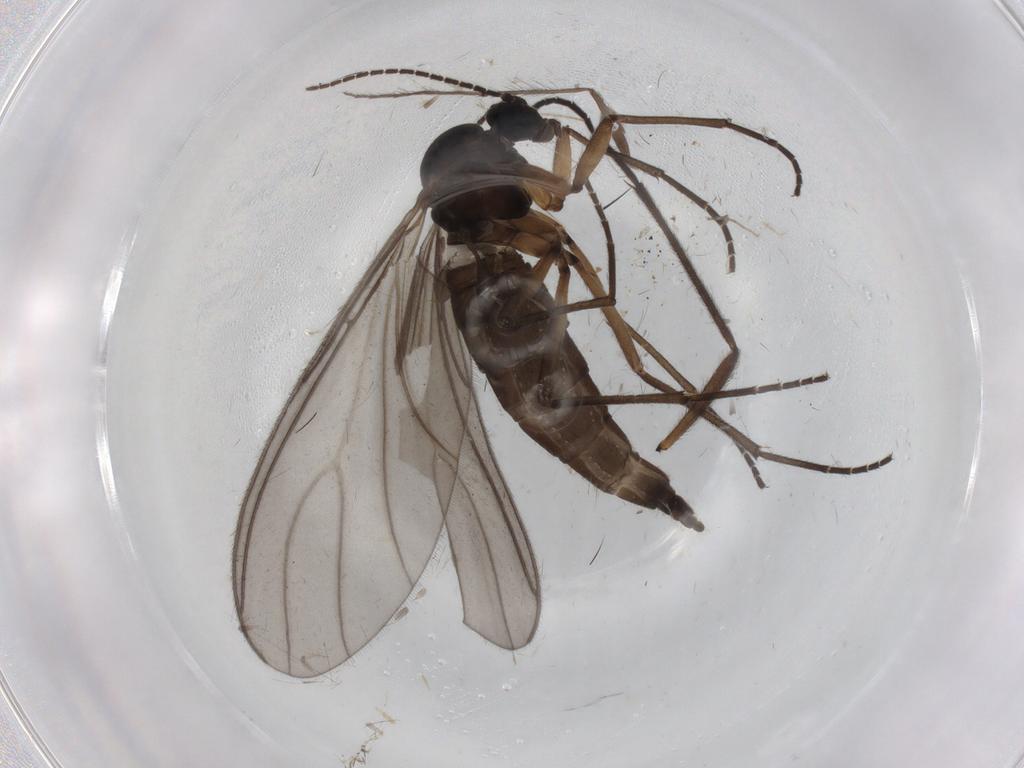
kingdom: Animalia
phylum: Arthropoda
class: Insecta
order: Diptera
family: Sciaridae
